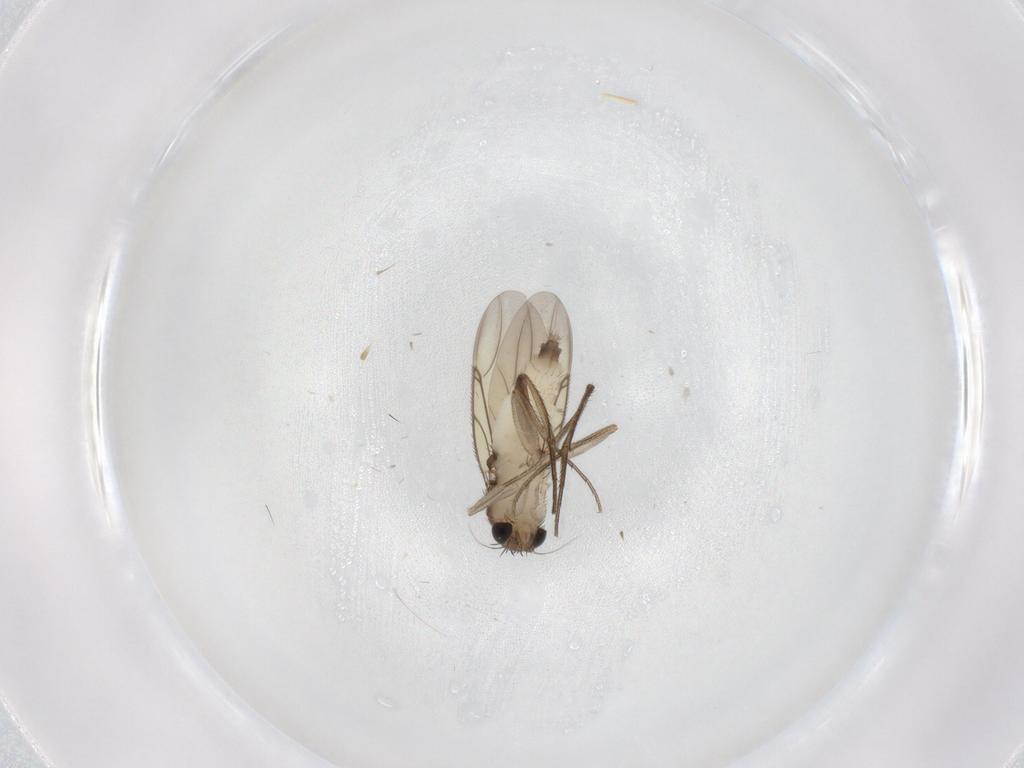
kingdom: Animalia
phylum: Arthropoda
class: Insecta
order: Diptera
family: Phoridae
